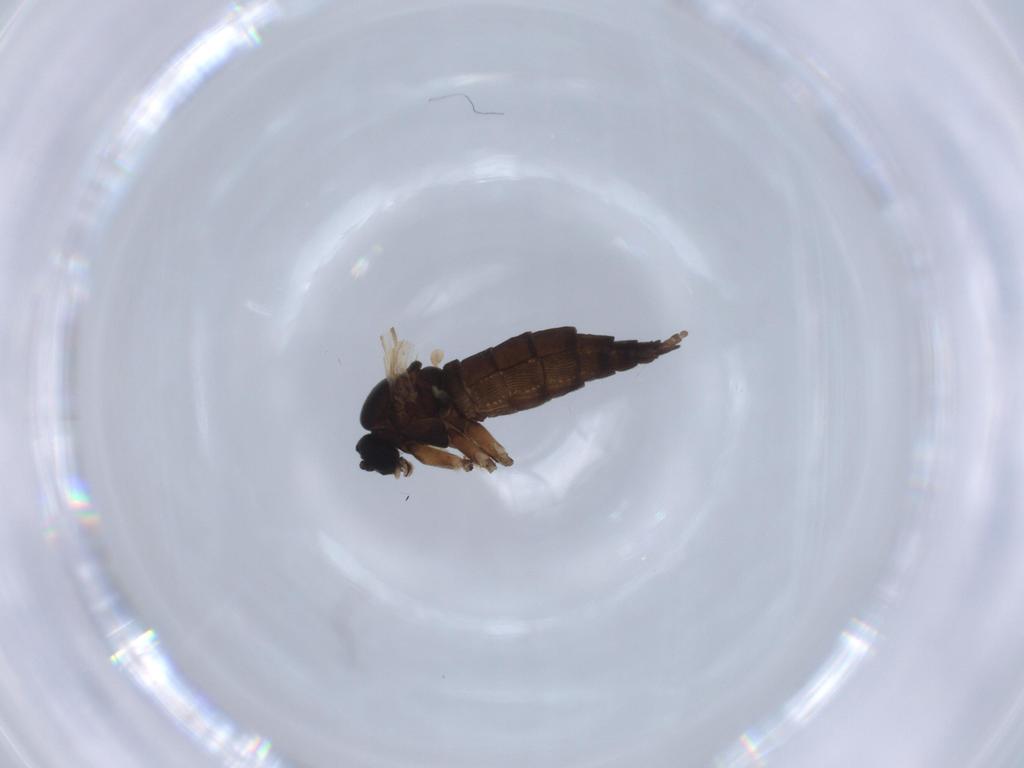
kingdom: Animalia
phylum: Arthropoda
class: Insecta
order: Diptera
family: Sciaridae
